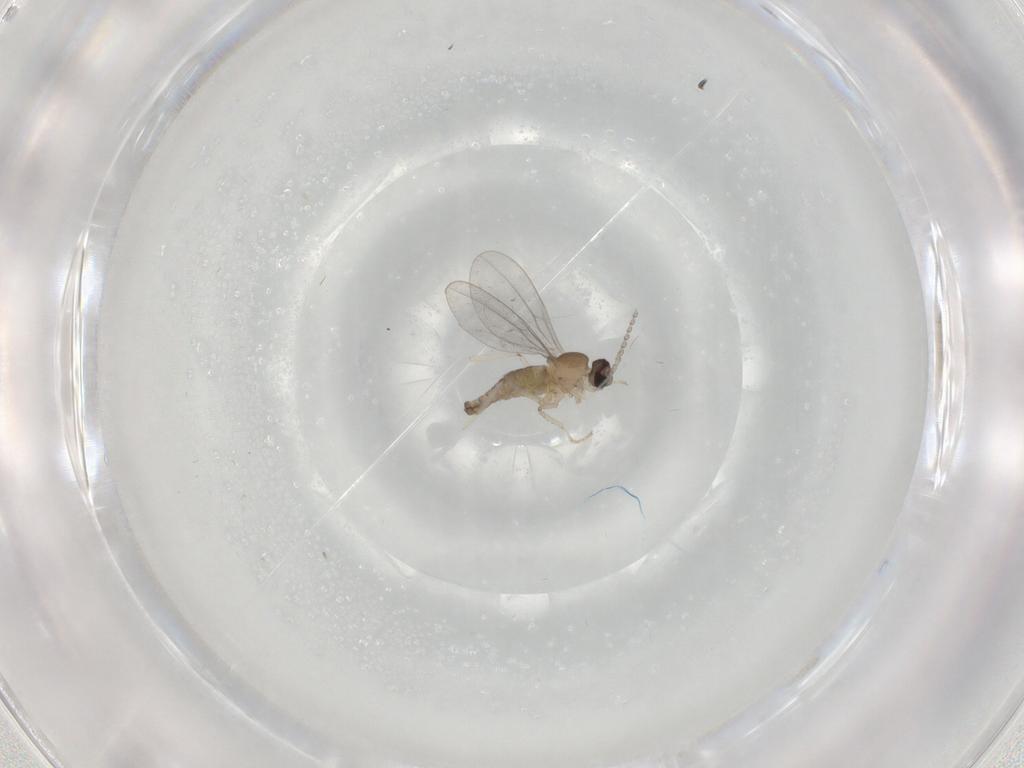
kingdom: Animalia
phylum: Arthropoda
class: Insecta
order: Diptera
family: Cecidomyiidae
